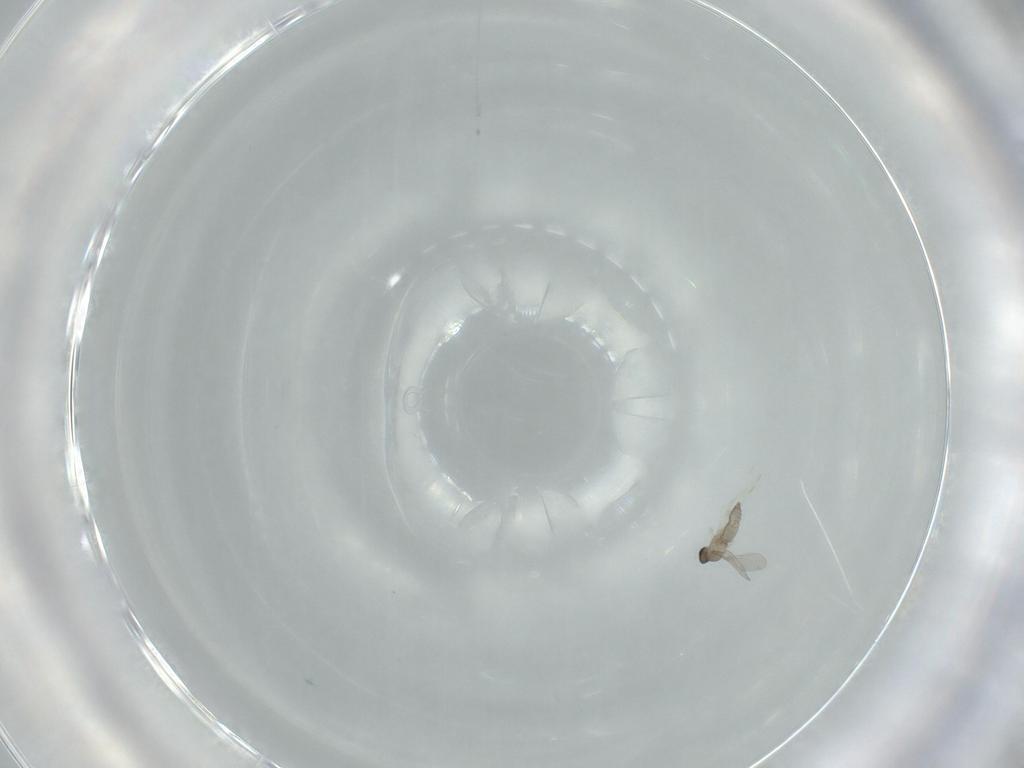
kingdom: Animalia
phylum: Arthropoda
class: Insecta
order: Diptera
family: Cecidomyiidae
